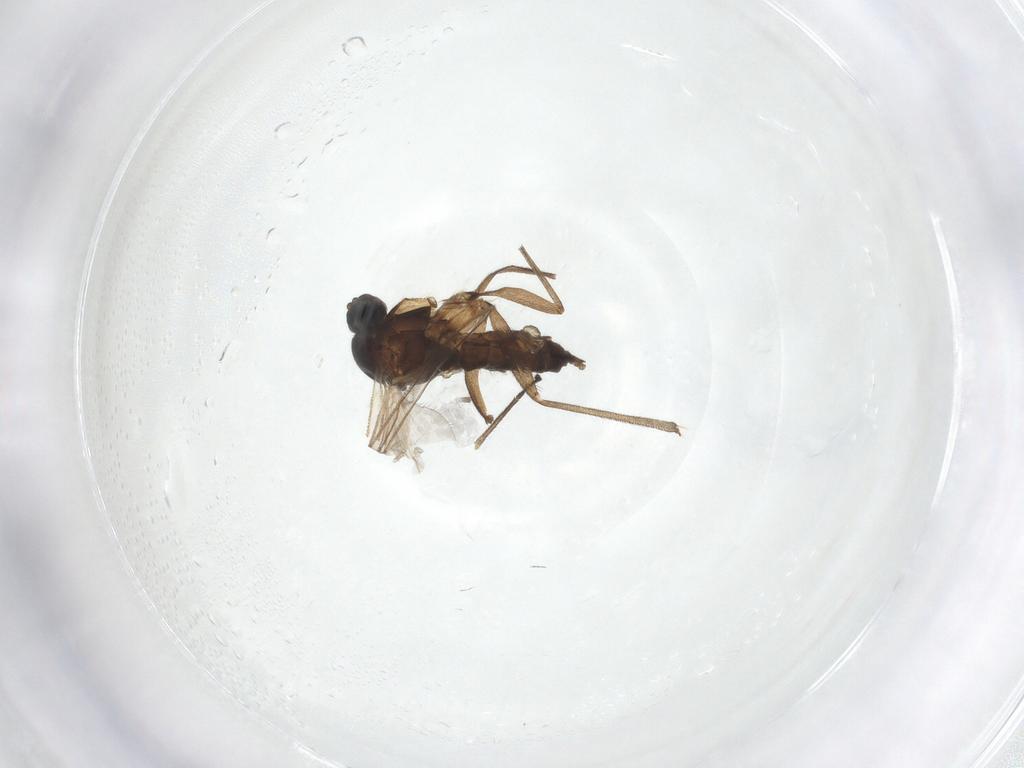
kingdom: Animalia
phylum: Arthropoda
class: Insecta
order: Diptera
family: Sciaridae
